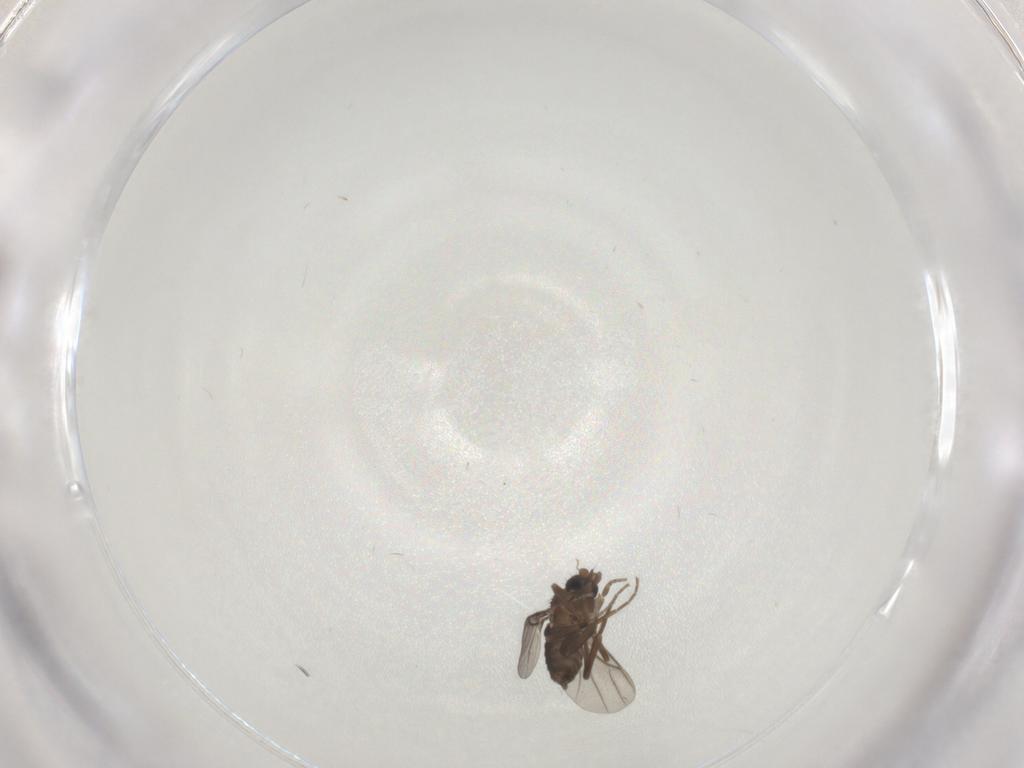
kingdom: Animalia
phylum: Arthropoda
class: Insecta
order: Diptera
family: Phoridae
